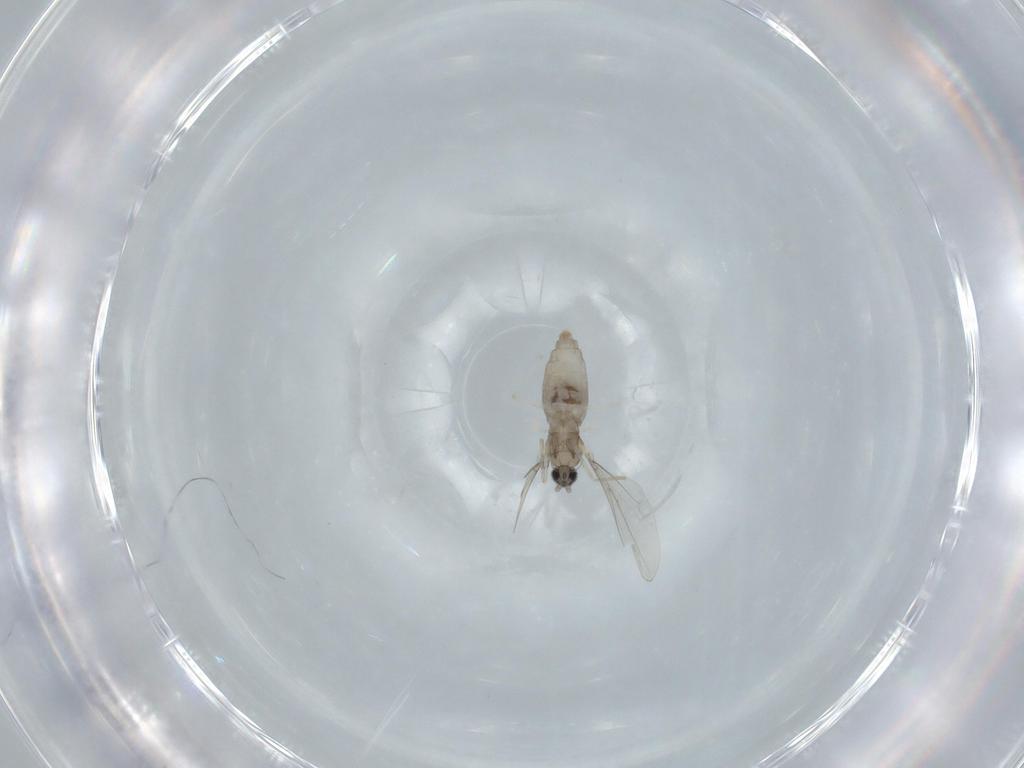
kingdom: Animalia
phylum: Arthropoda
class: Insecta
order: Diptera
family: Cecidomyiidae
